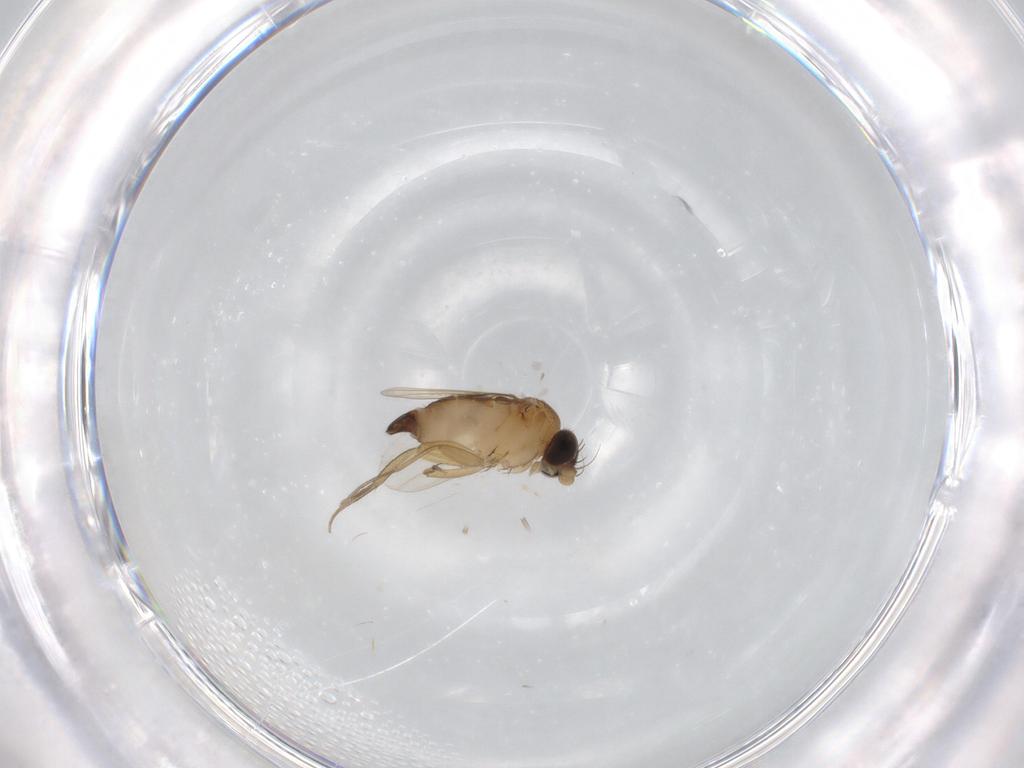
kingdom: Animalia
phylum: Arthropoda
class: Insecta
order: Diptera
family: Phoridae
